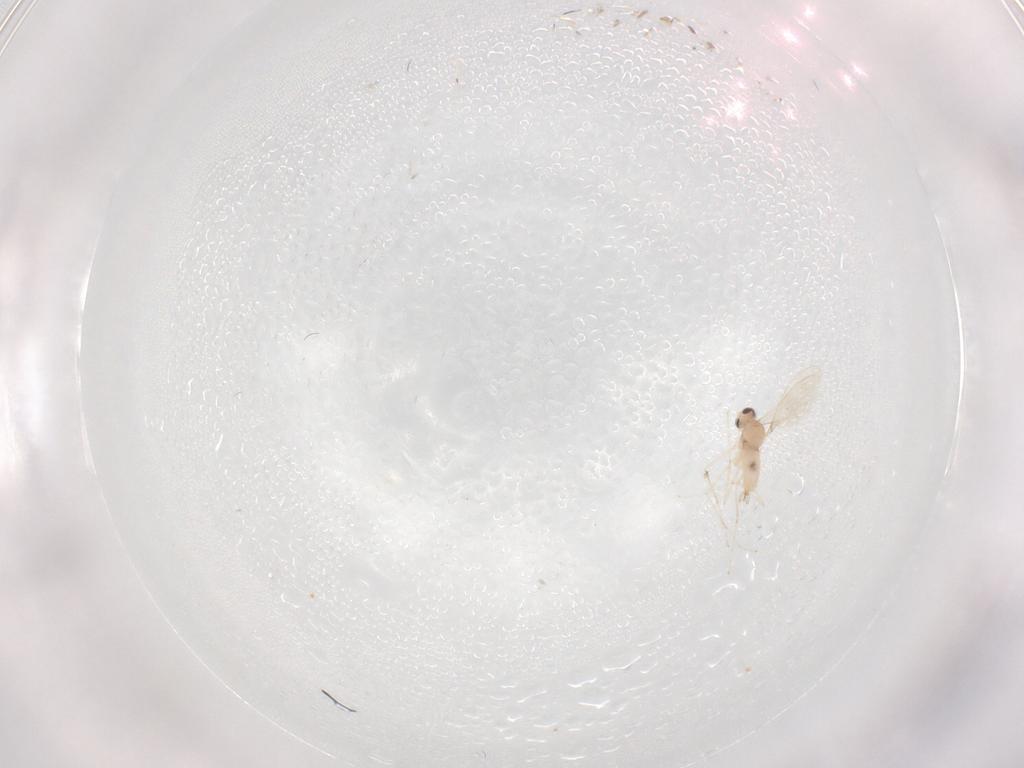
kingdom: Animalia
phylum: Arthropoda
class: Insecta
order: Diptera
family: Cecidomyiidae
